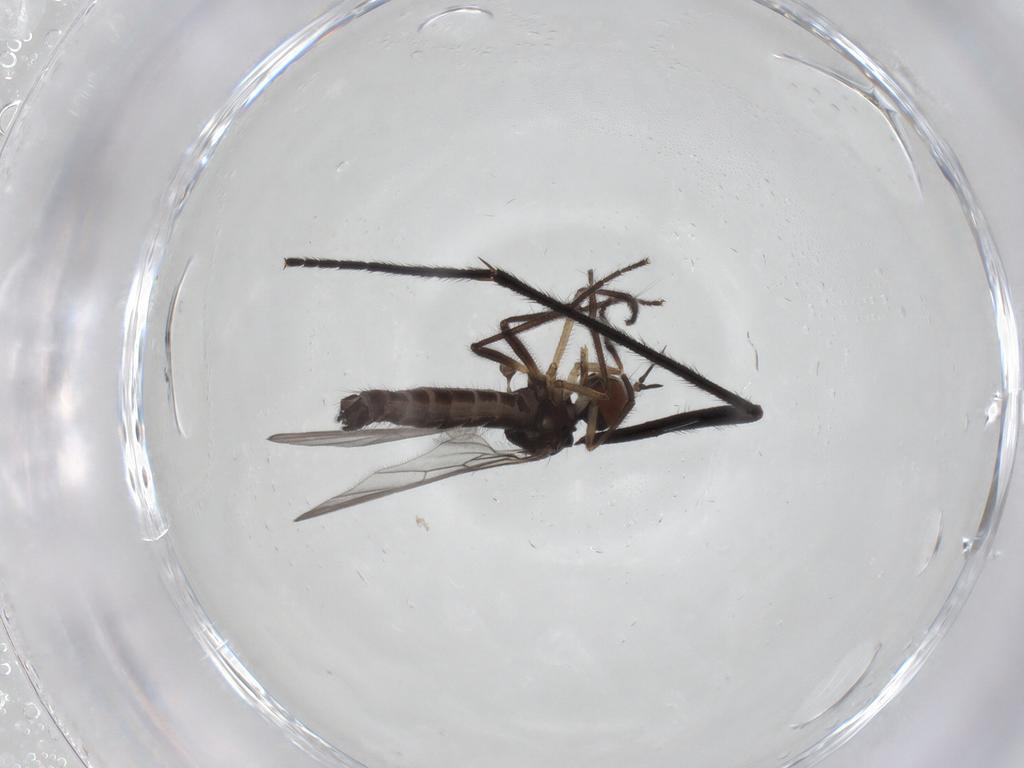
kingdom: Animalia
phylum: Arthropoda
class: Insecta
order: Diptera
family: Empididae
